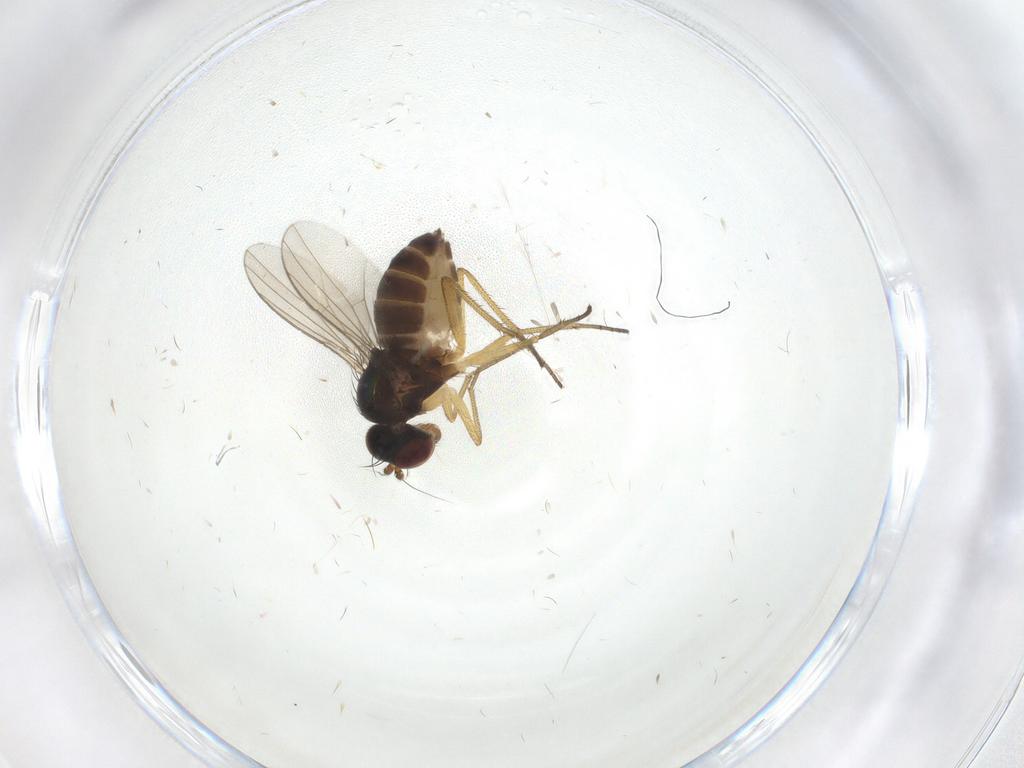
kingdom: Animalia
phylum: Arthropoda
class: Insecta
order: Diptera
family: Dolichopodidae
